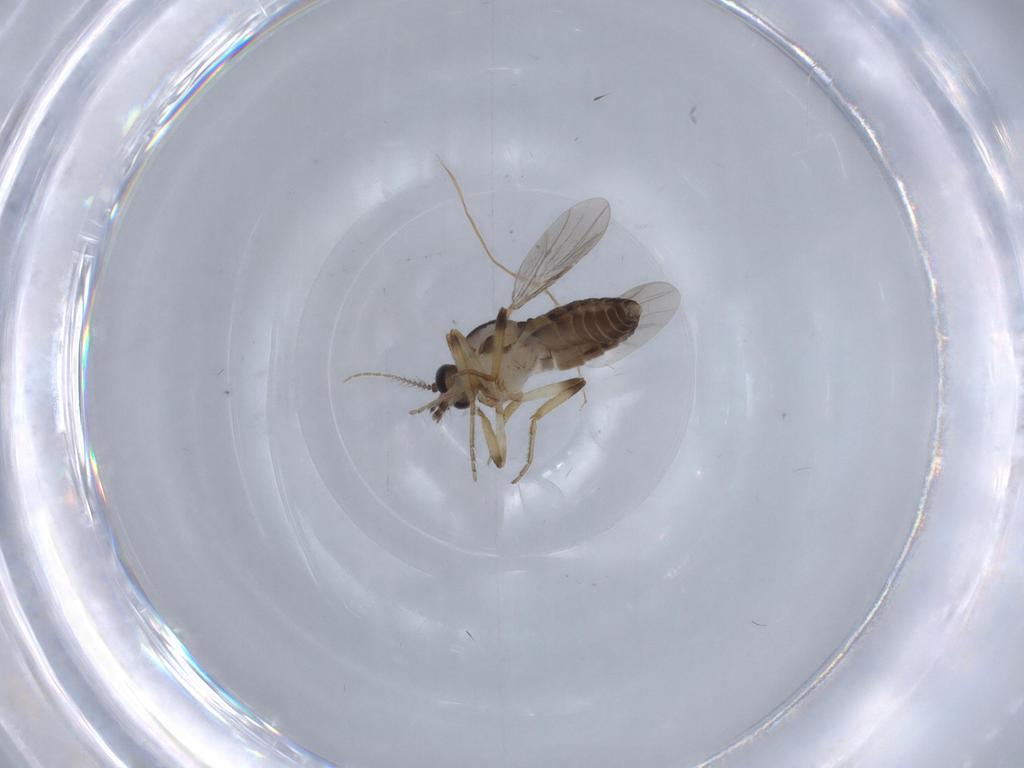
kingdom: Animalia
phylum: Arthropoda
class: Insecta
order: Diptera
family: Ceratopogonidae
